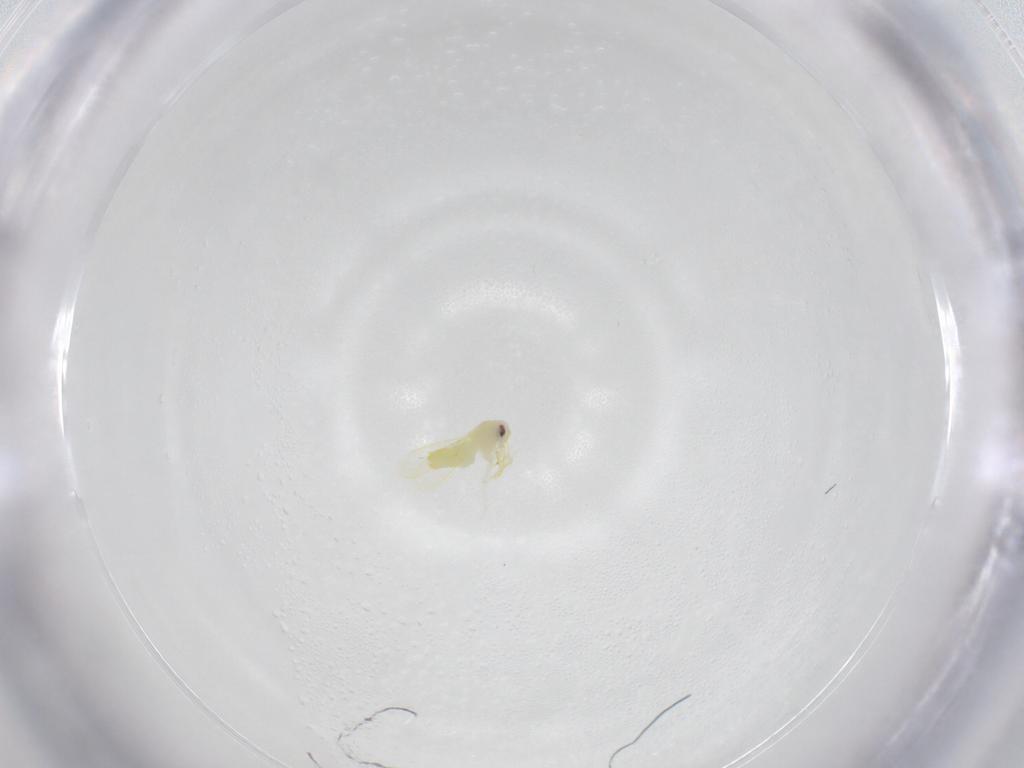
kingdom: Animalia
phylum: Arthropoda
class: Insecta
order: Hemiptera
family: Aleyrodidae
